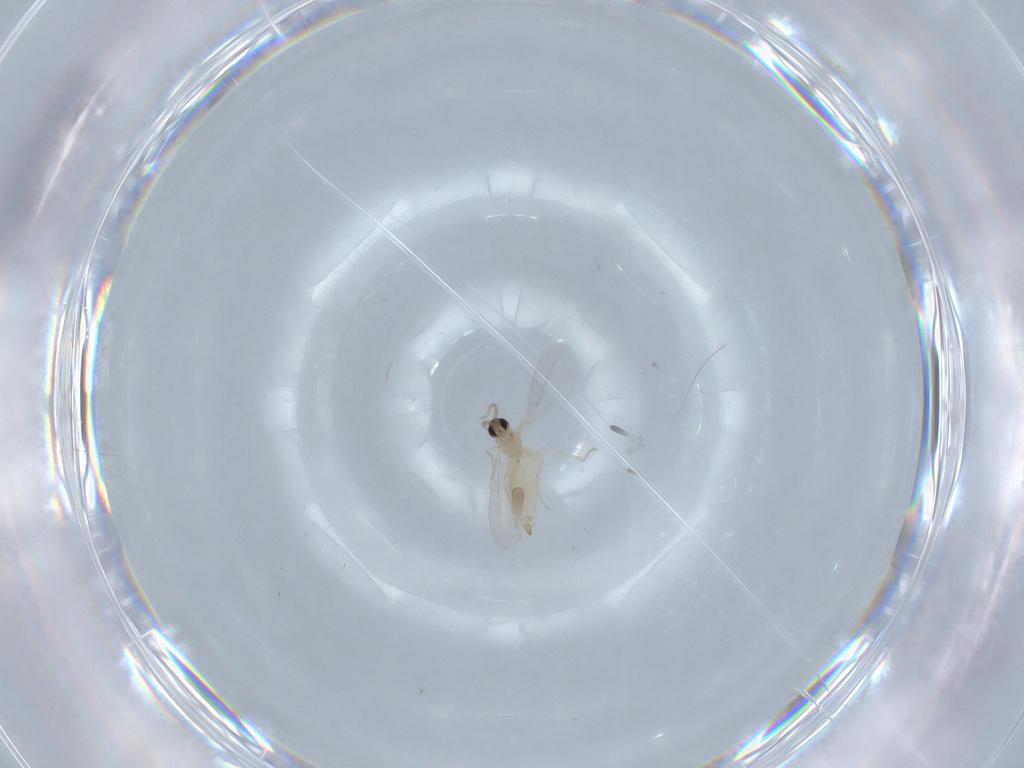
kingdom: Animalia
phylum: Arthropoda
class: Insecta
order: Diptera
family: Cecidomyiidae
